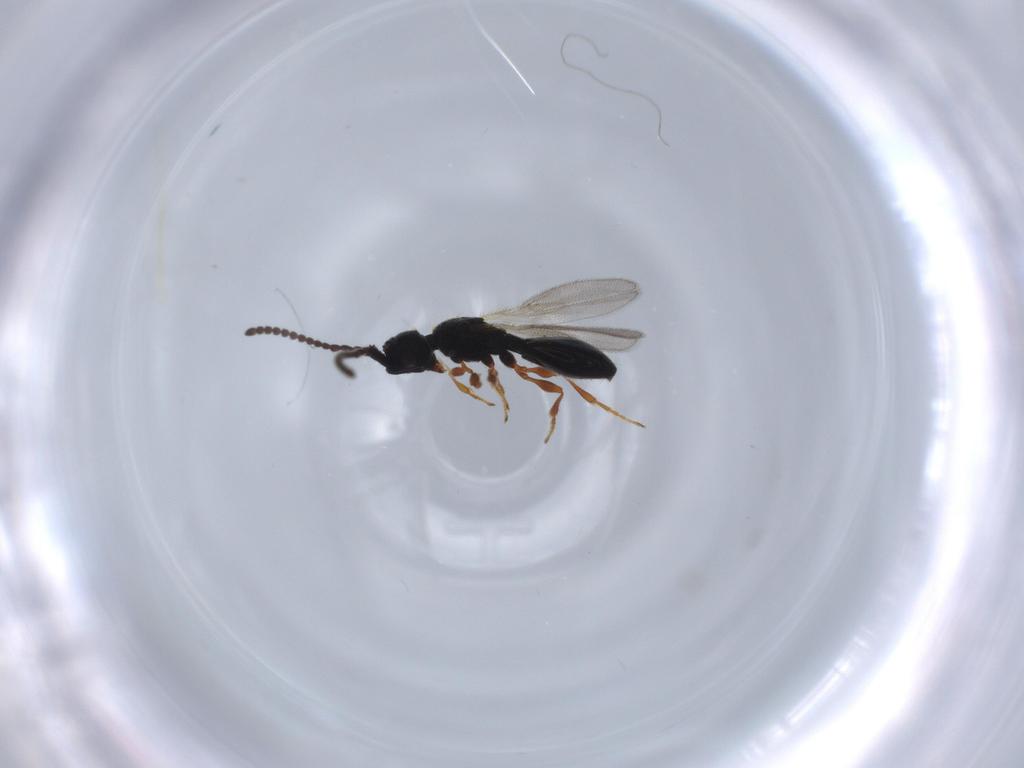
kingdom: Animalia
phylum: Arthropoda
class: Insecta
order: Hymenoptera
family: Diapriidae
